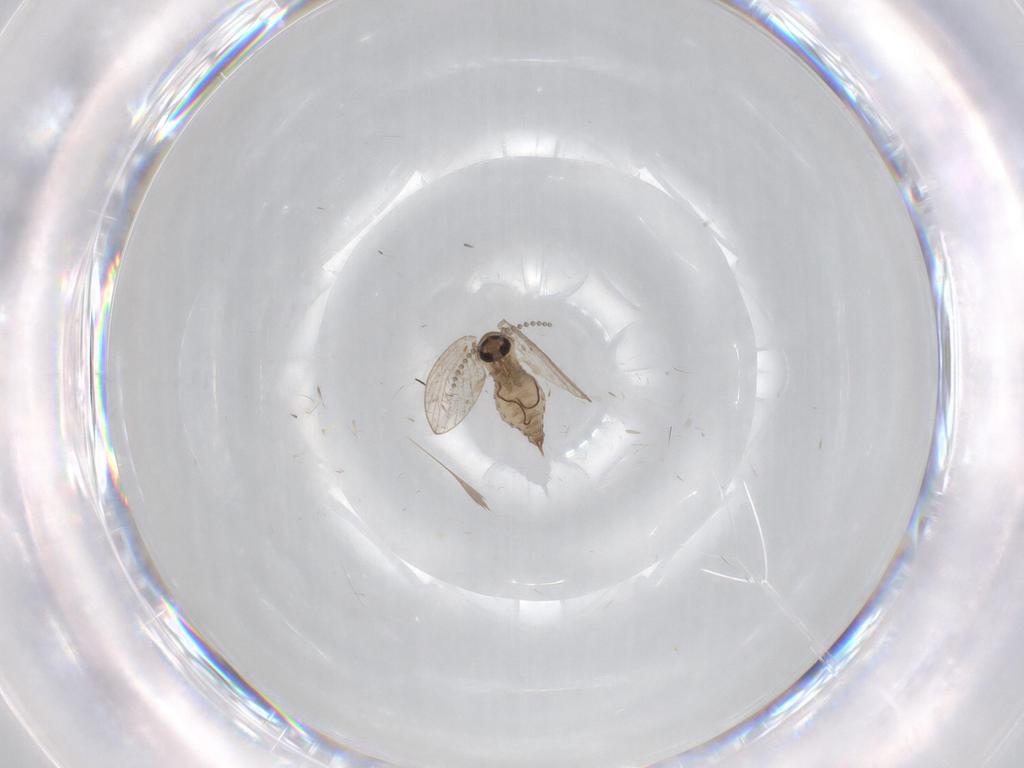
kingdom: Animalia
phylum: Arthropoda
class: Insecta
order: Diptera
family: Psychodidae
